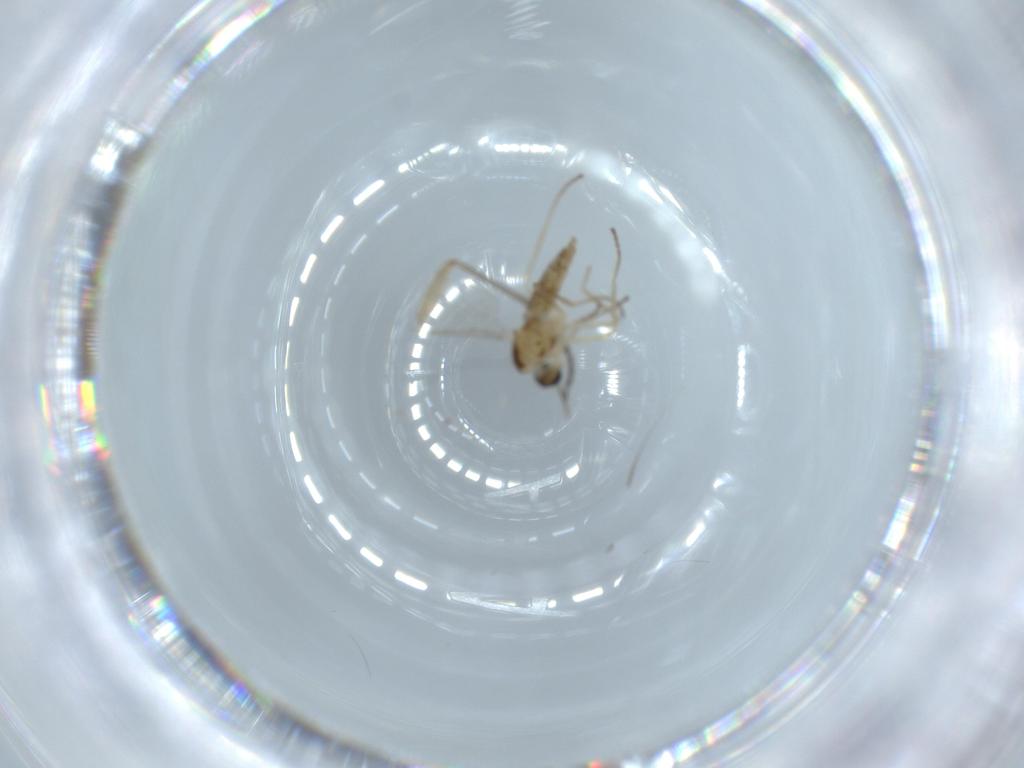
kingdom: Animalia
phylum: Arthropoda
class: Insecta
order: Diptera
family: Sciaridae
